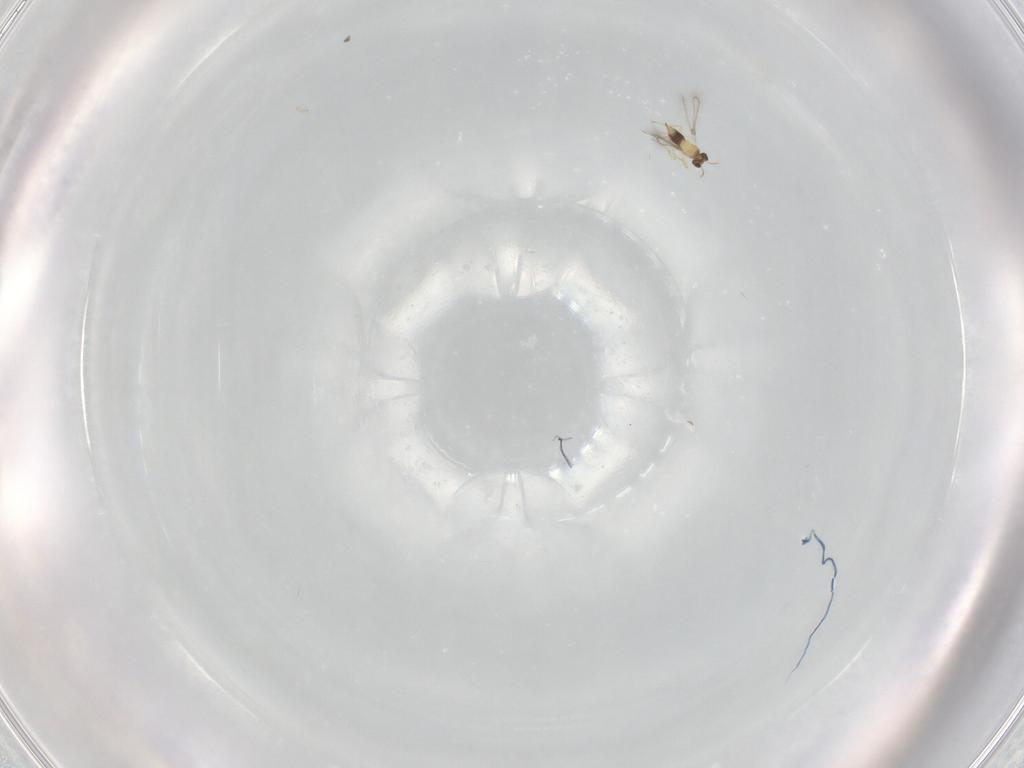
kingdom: Animalia
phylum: Arthropoda
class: Insecta
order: Hymenoptera
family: Mymaridae
